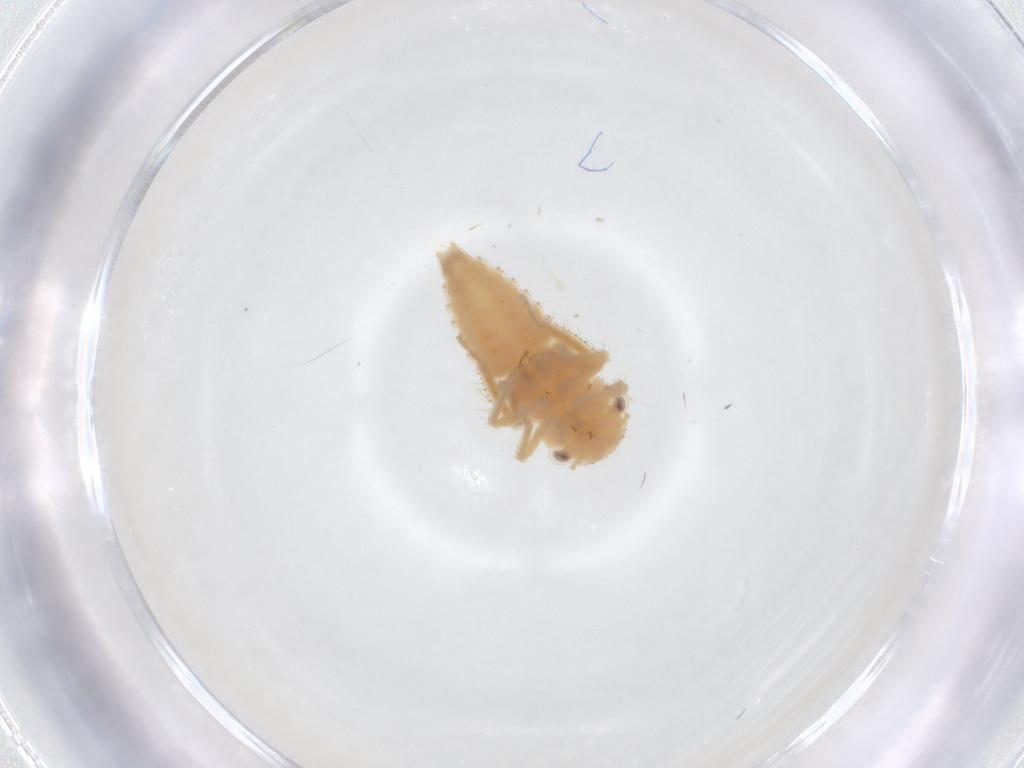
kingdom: Animalia
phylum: Arthropoda
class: Insecta
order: Hemiptera
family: Cicadellidae
